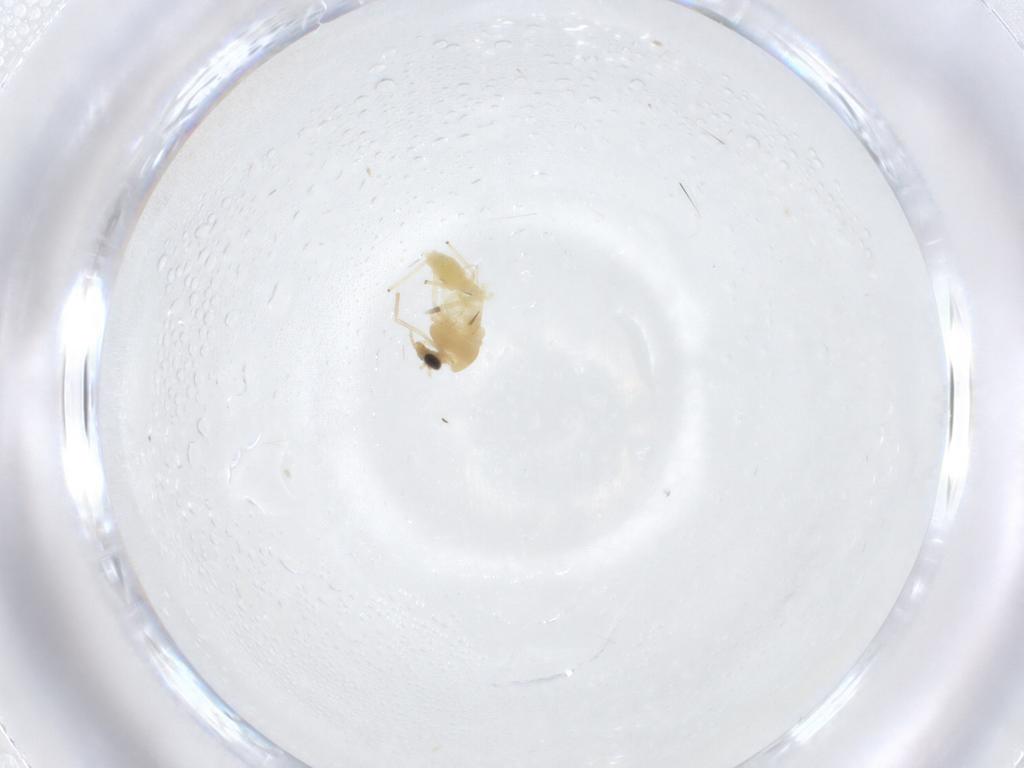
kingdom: Animalia
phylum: Arthropoda
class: Insecta
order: Diptera
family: Chironomidae
